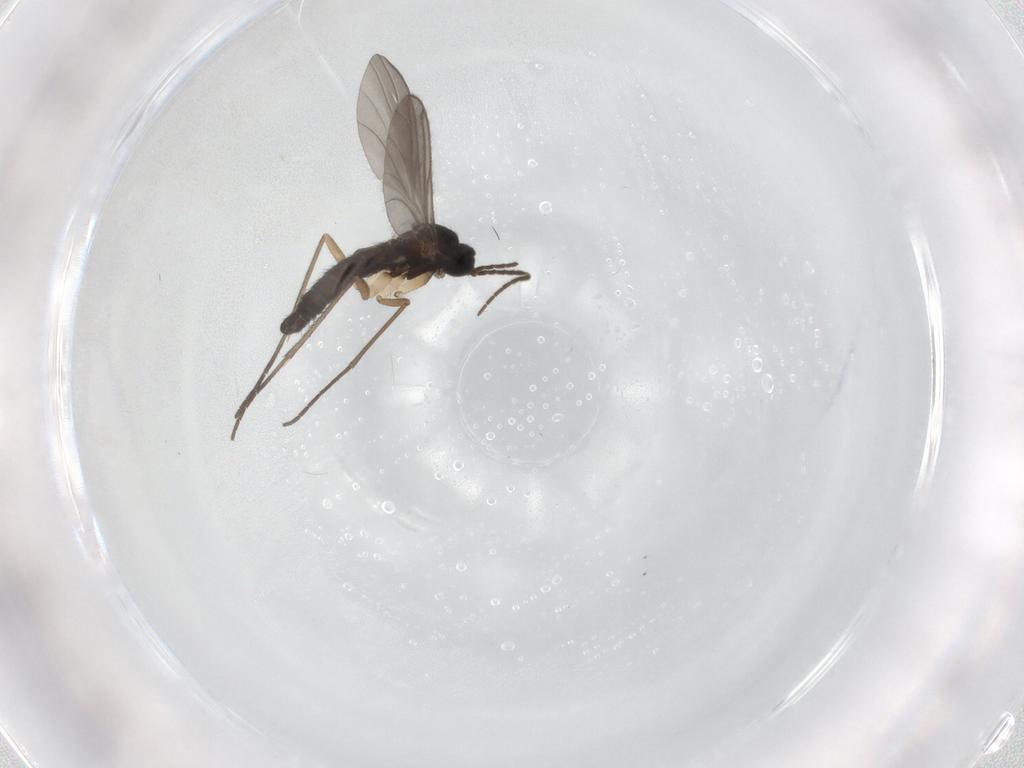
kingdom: Animalia
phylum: Arthropoda
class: Insecta
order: Diptera
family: Sciaridae
